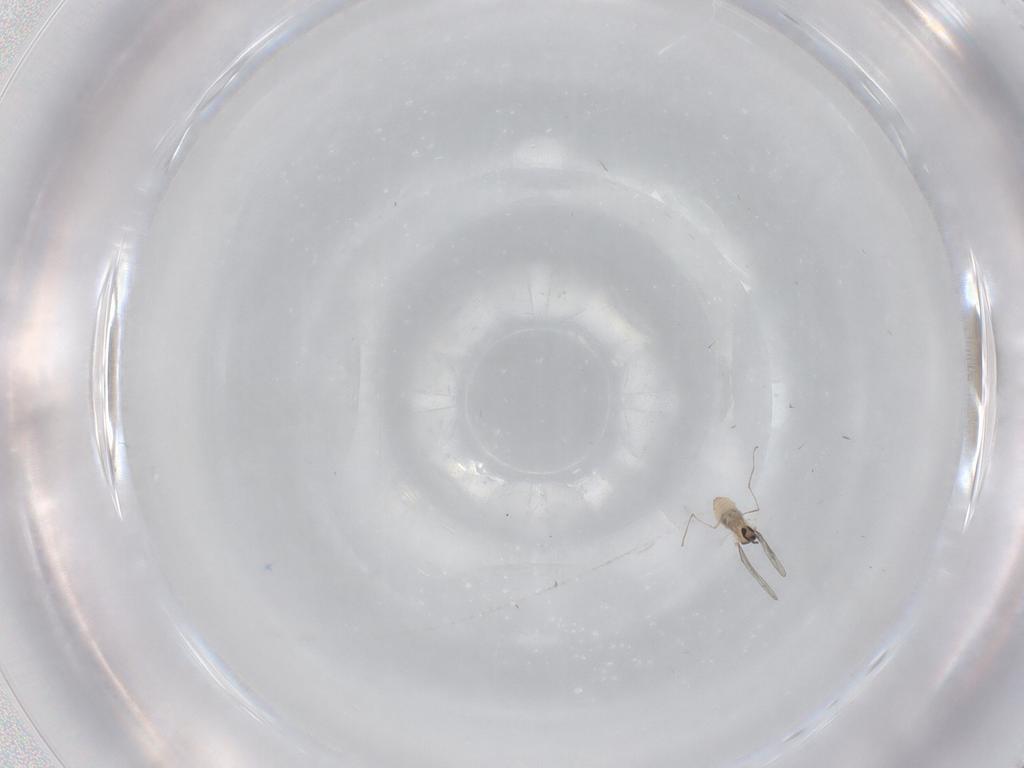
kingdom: Animalia
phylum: Arthropoda
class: Insecta
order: Diptera
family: Cecidomyiidae
